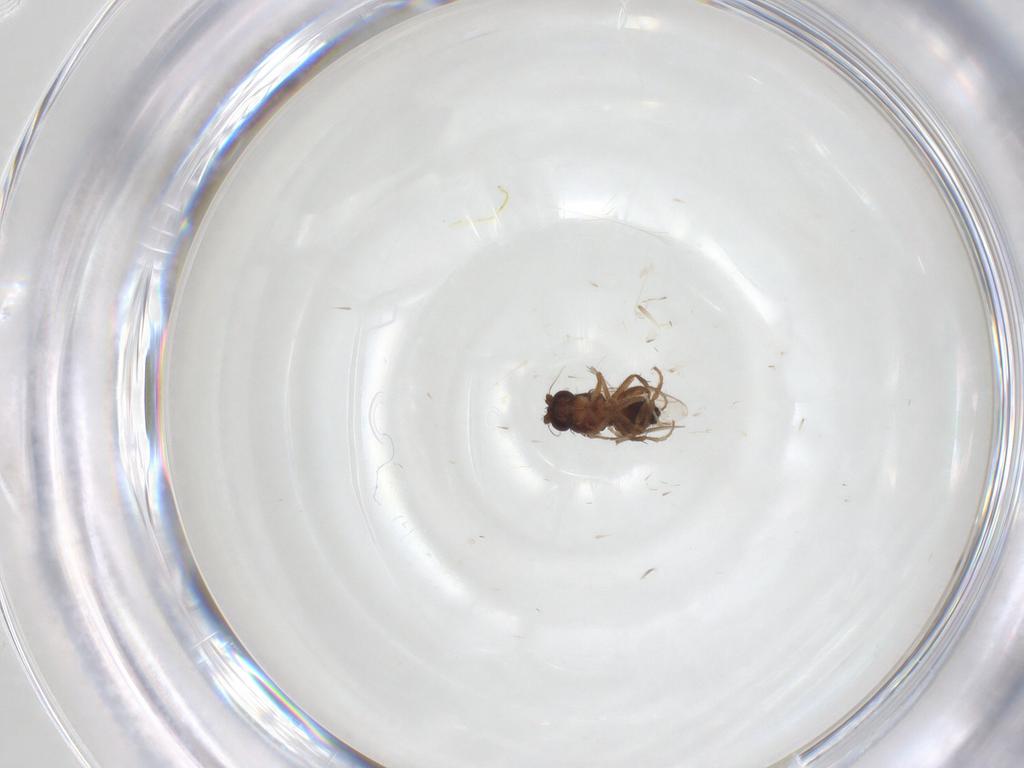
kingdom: Animalia
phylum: Arthropoda
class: Insecta
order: Diptera
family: Sphaeroceridae
